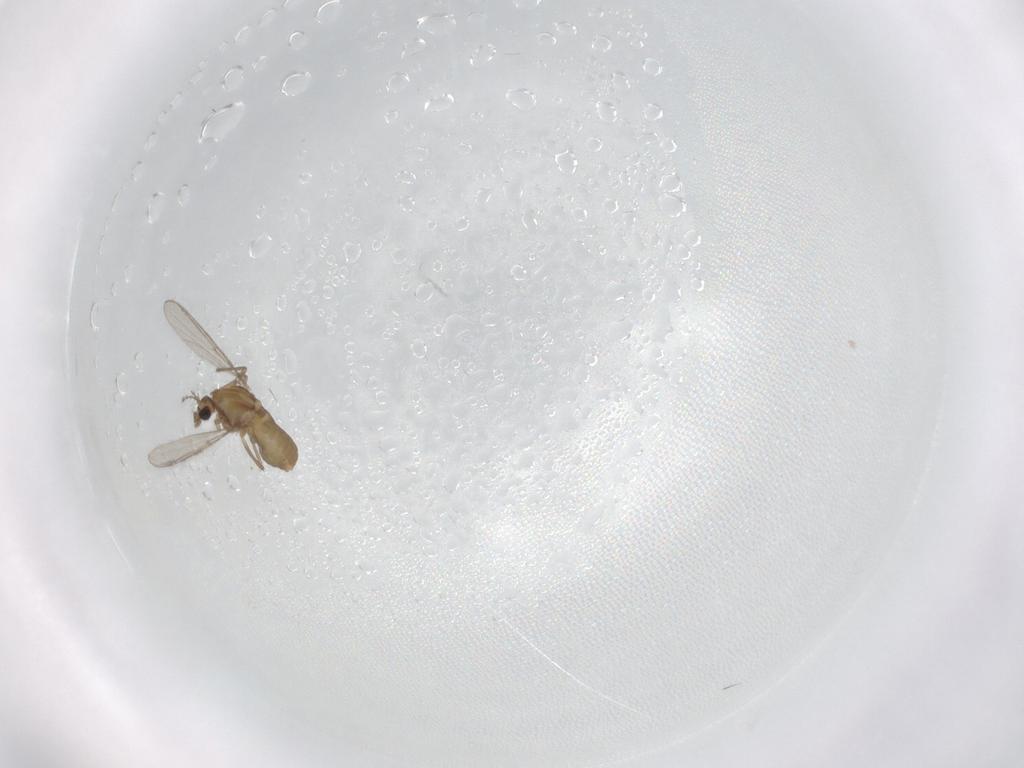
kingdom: Animalia
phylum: Arthropoda
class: Insecta
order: Diptera
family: Chironomidae
